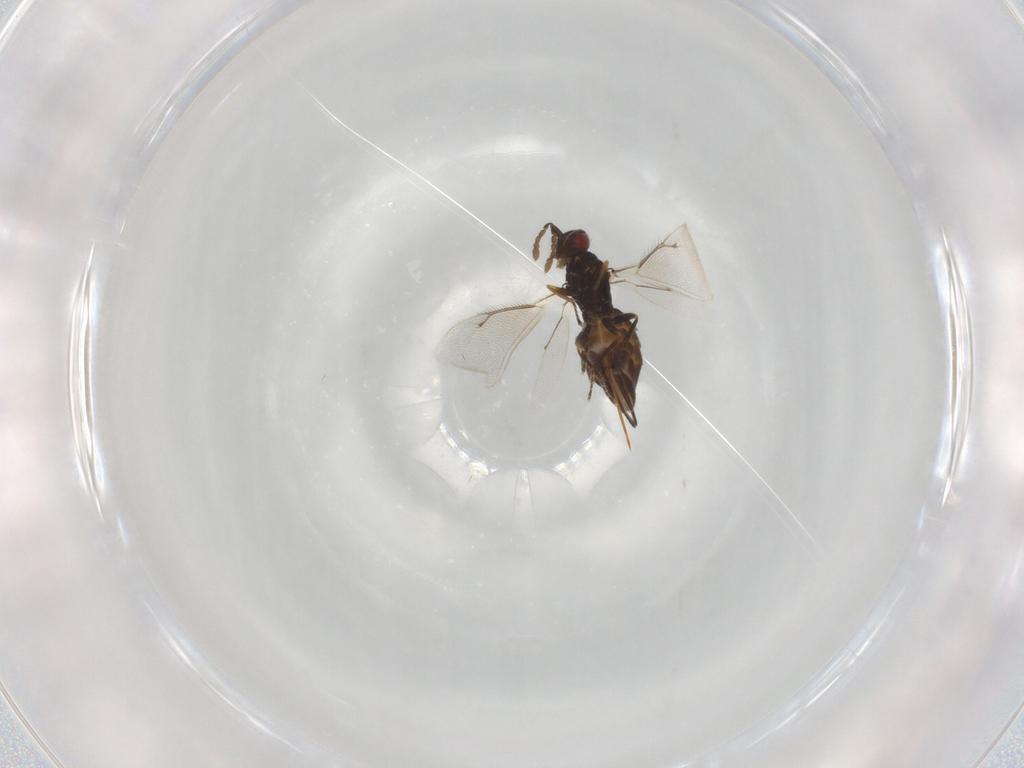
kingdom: Animalia
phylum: Arthropoda
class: Insecta
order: Hymenoptera
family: Eulophidae
